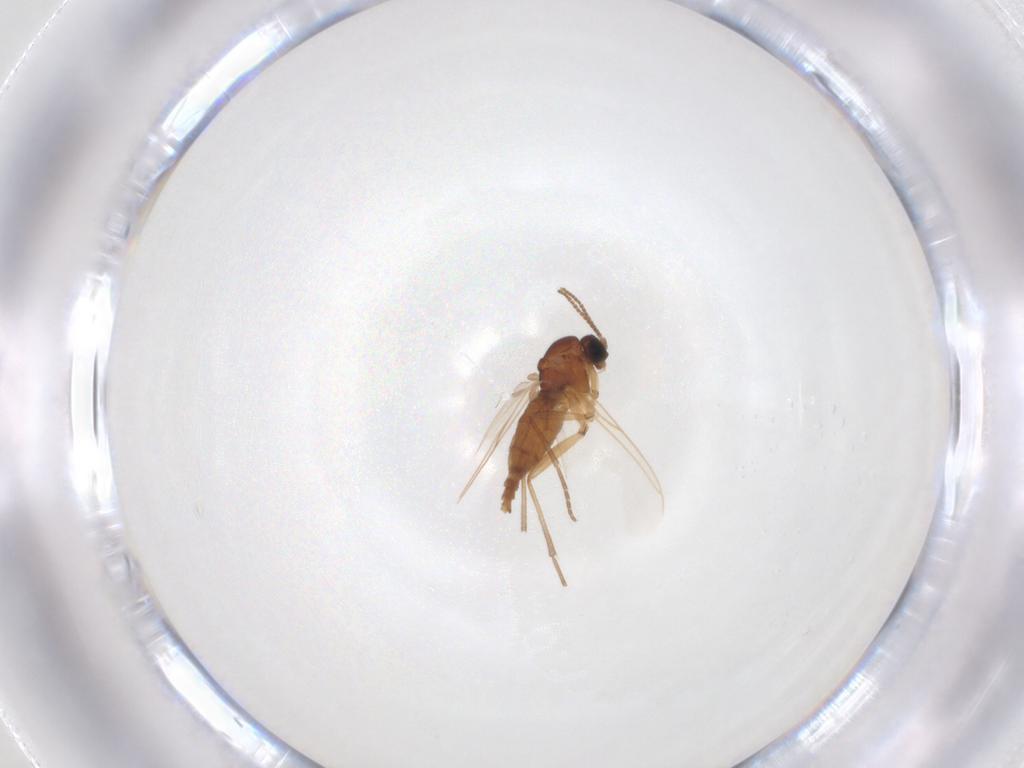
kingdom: Animalia
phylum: Arthropoda
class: Insecta
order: Diptera
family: Sciaridae
